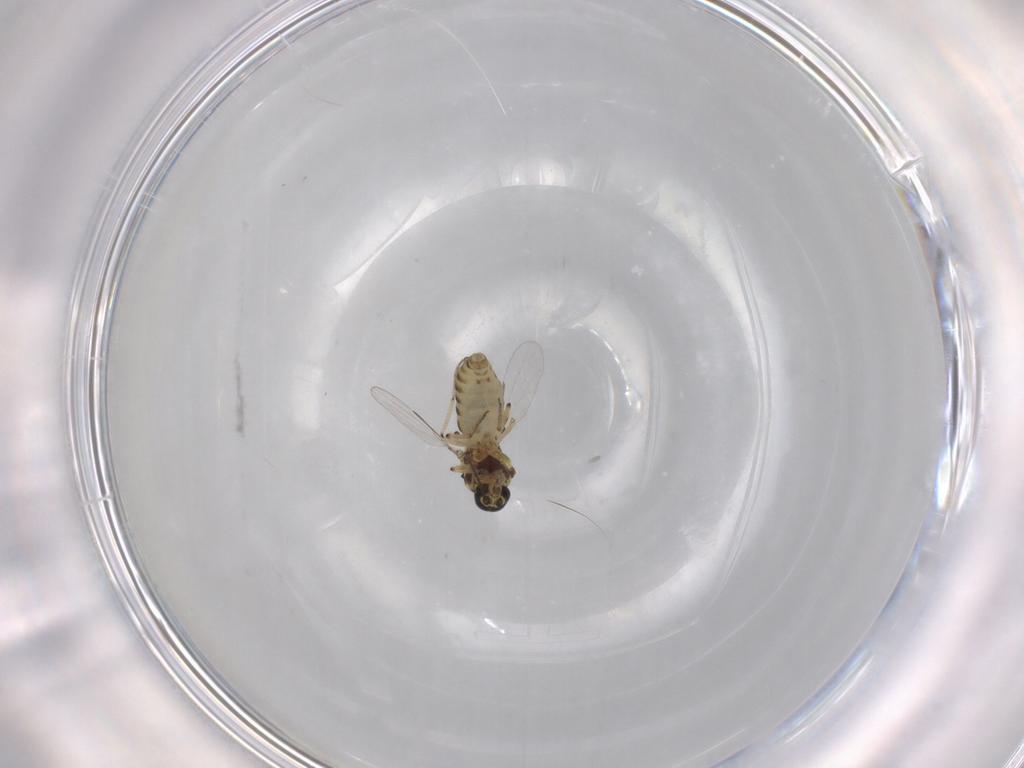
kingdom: Animalia
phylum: Arthropoda
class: Insecta
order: Diptera
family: Ceratopogonidae
